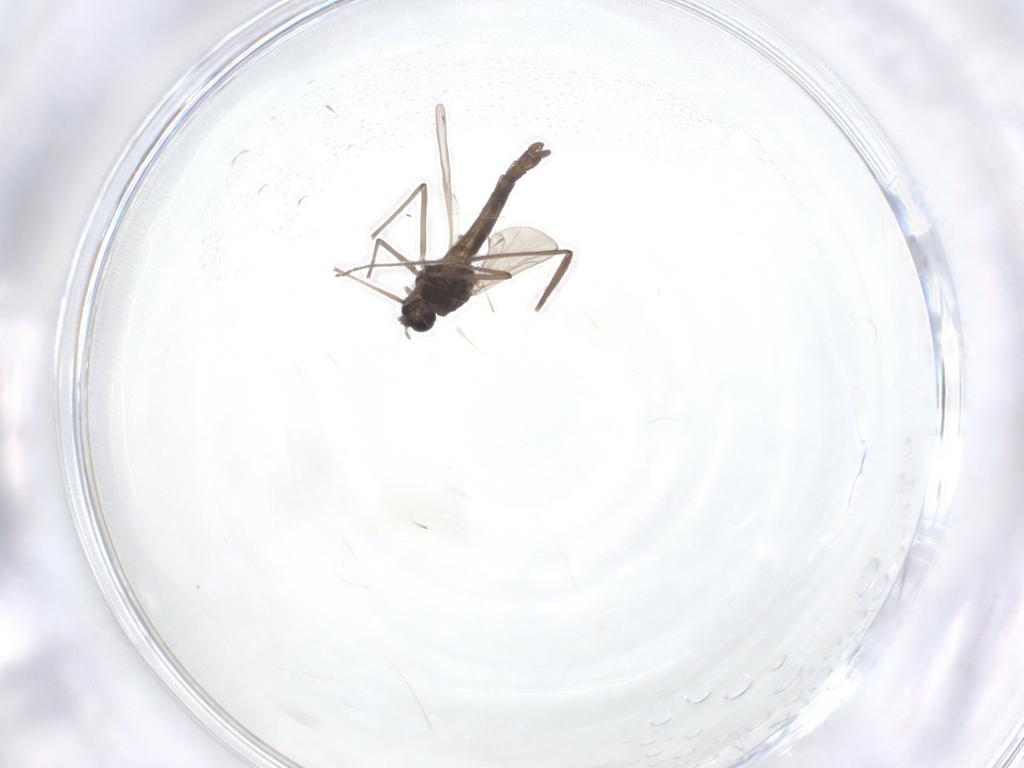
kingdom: Animalia
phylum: Arthropoda
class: Insecta
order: Diptera
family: Chironomidae
